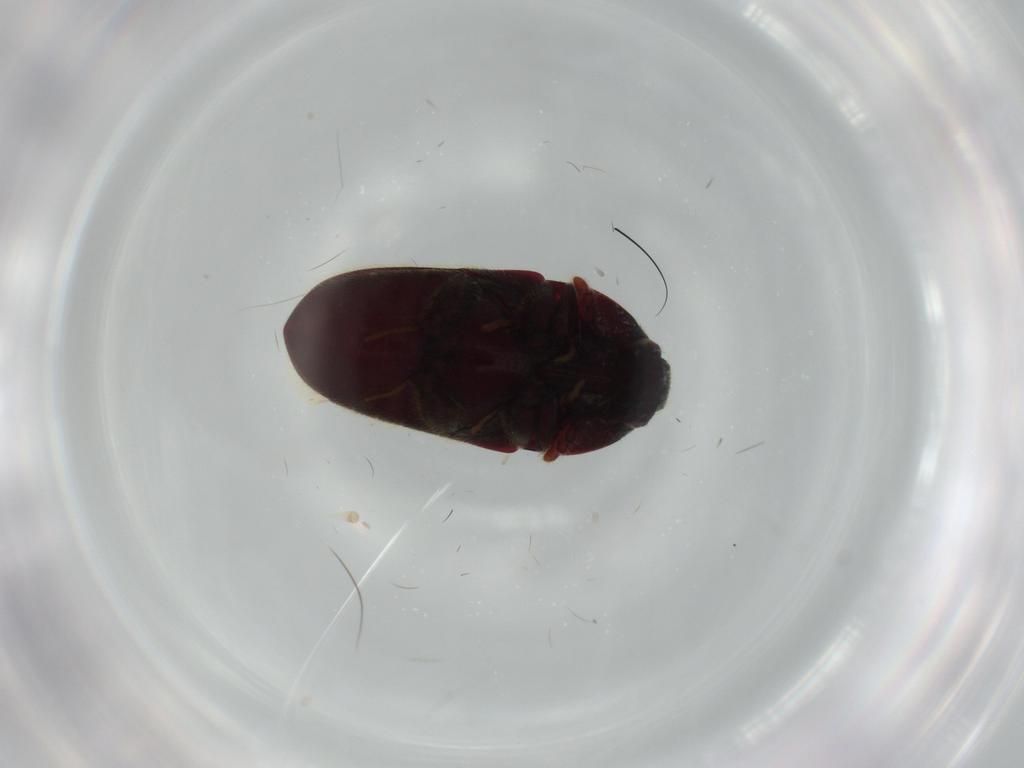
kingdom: Animalia
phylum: Arthropoda
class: Insecta
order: Coleoptera
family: Throscidae
